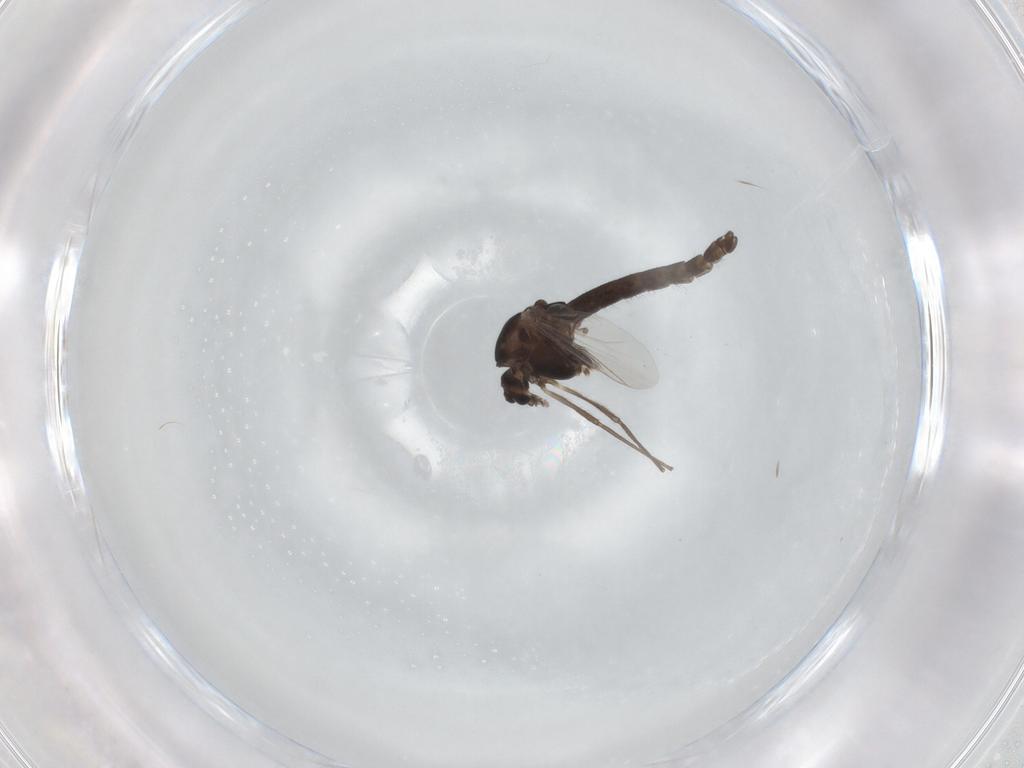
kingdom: Animalia
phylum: Arthropoda
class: Insecta
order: Diptera
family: Chironomidae
